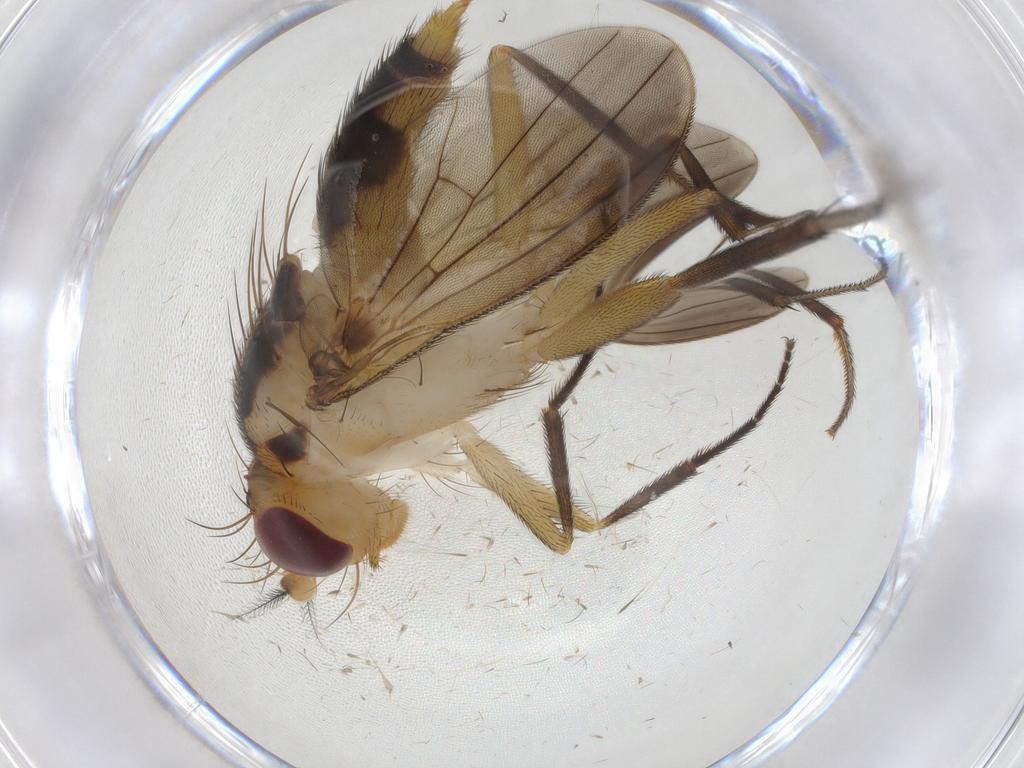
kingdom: Animalia
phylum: Arthropoda
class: Insecta
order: Diptera
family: Clusiidae
